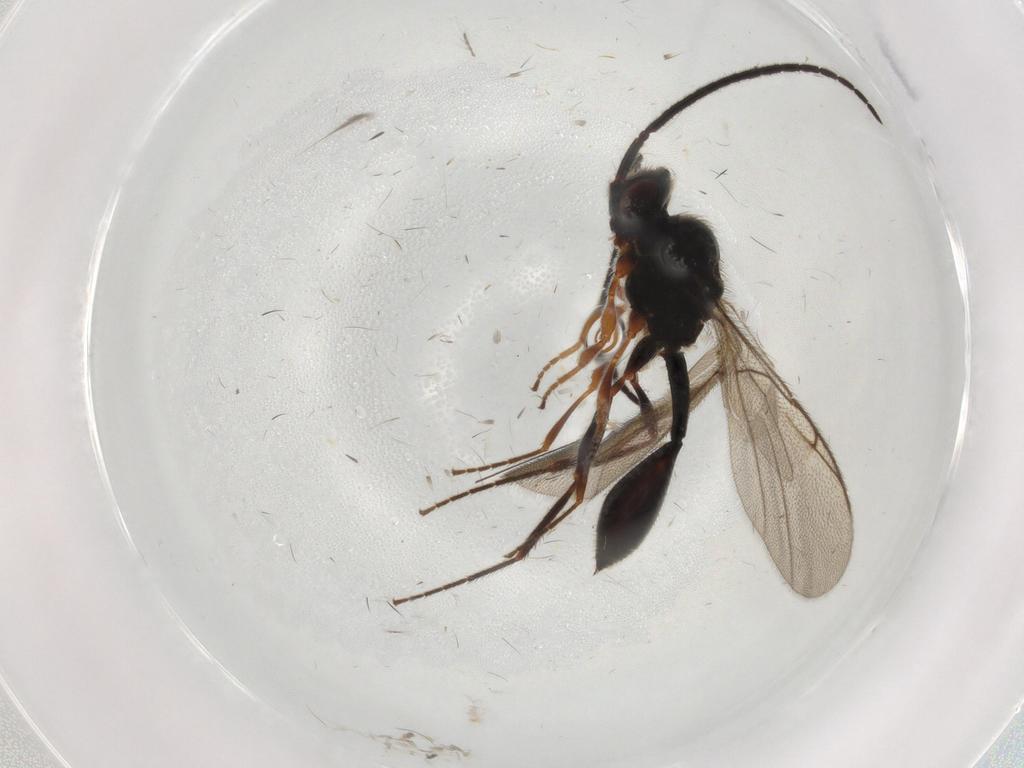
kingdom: Animalia
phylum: Arthropoda
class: Insecta
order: Hymenoptera
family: Diapriidae
